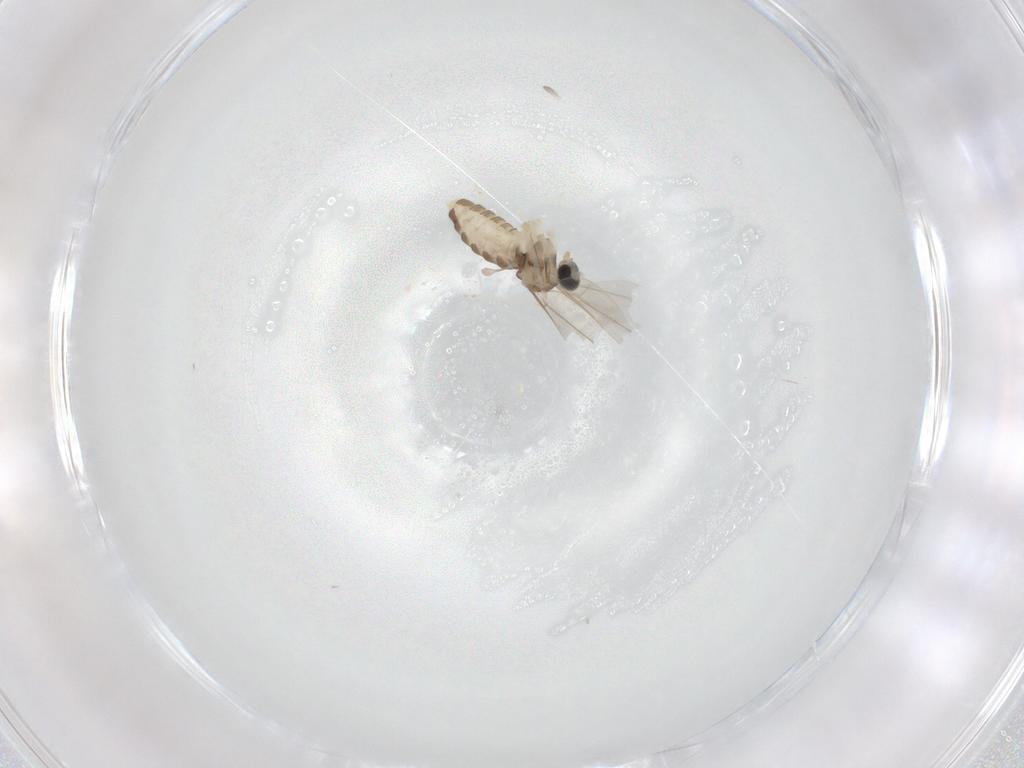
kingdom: Animalia
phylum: Arthropoda
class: Insecta
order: Diptera
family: Cecidomyiidae
